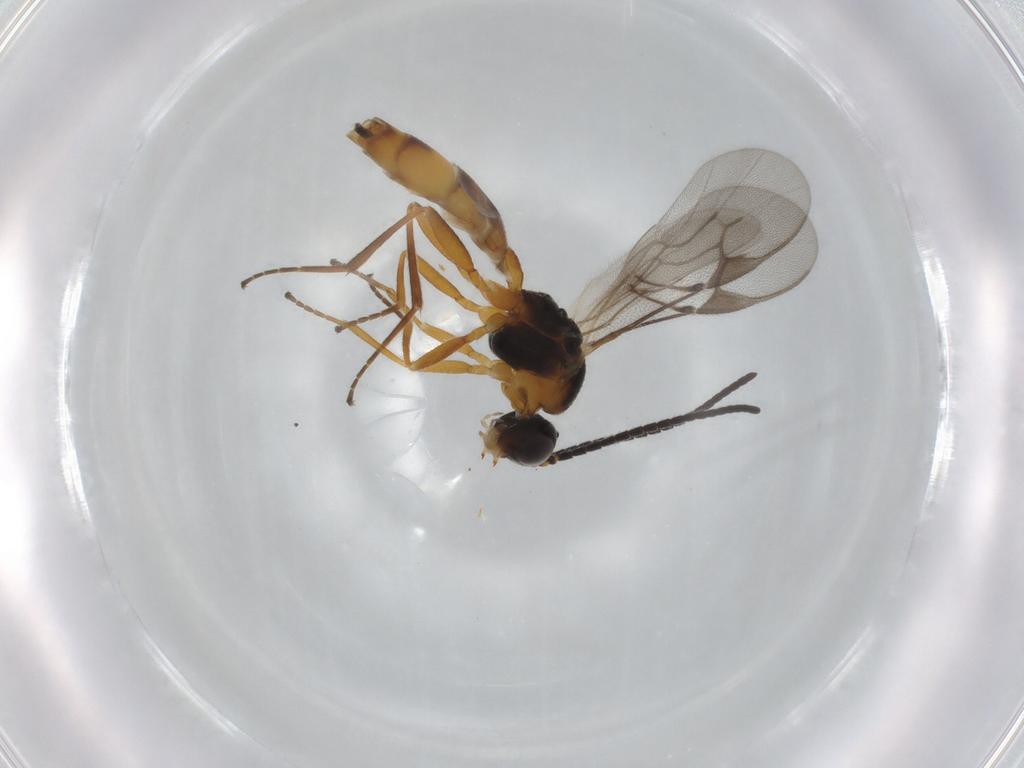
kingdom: Animalia
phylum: Arthropoda
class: Insecta
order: Hymenoptera
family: Braconidae
